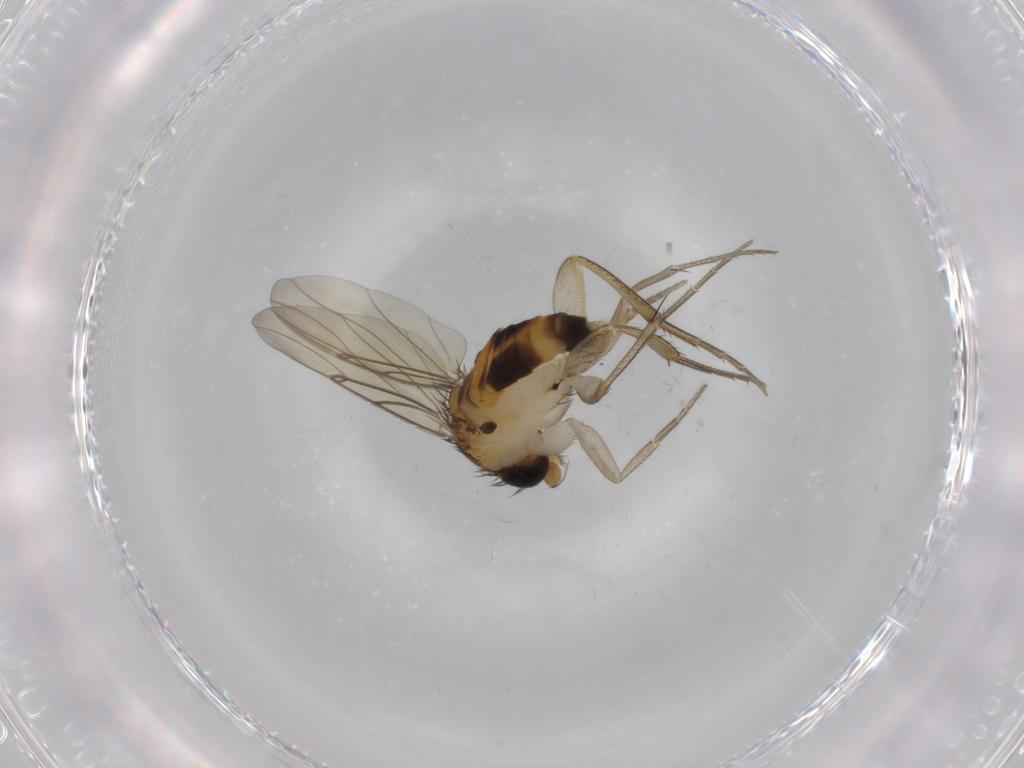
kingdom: Animalia
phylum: Arthropoda
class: Insecta
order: Diptera
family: Phoridae
